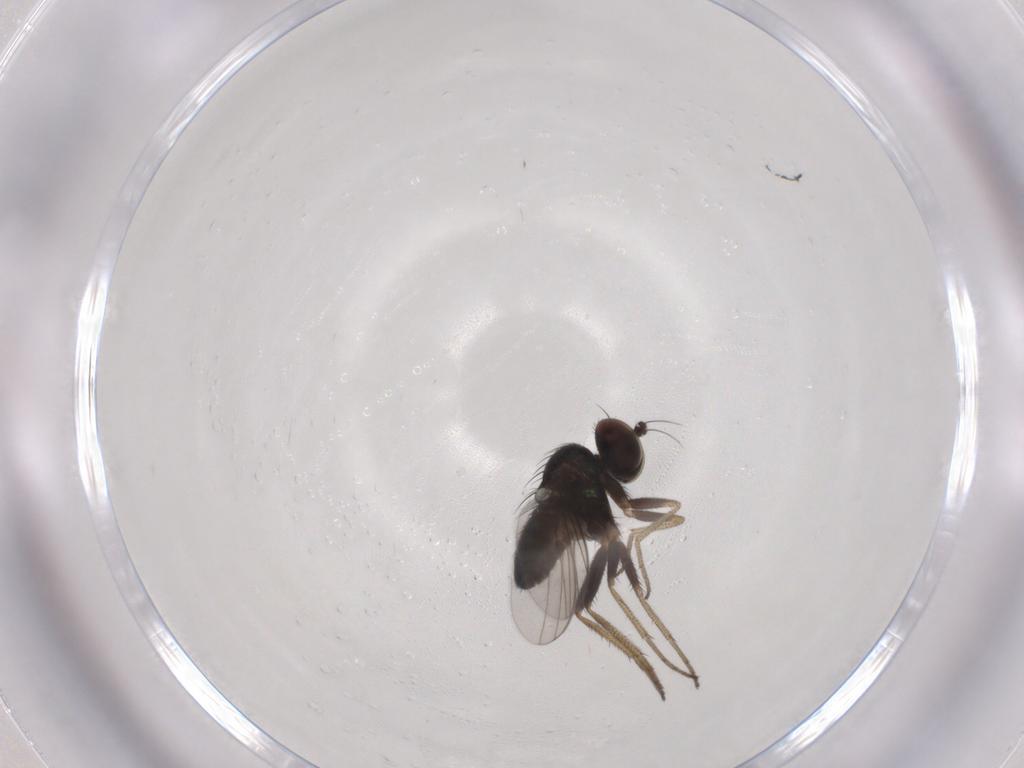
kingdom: Animalia
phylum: Arthropoda
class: Insecta
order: Diptera
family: Dolichopodidae
